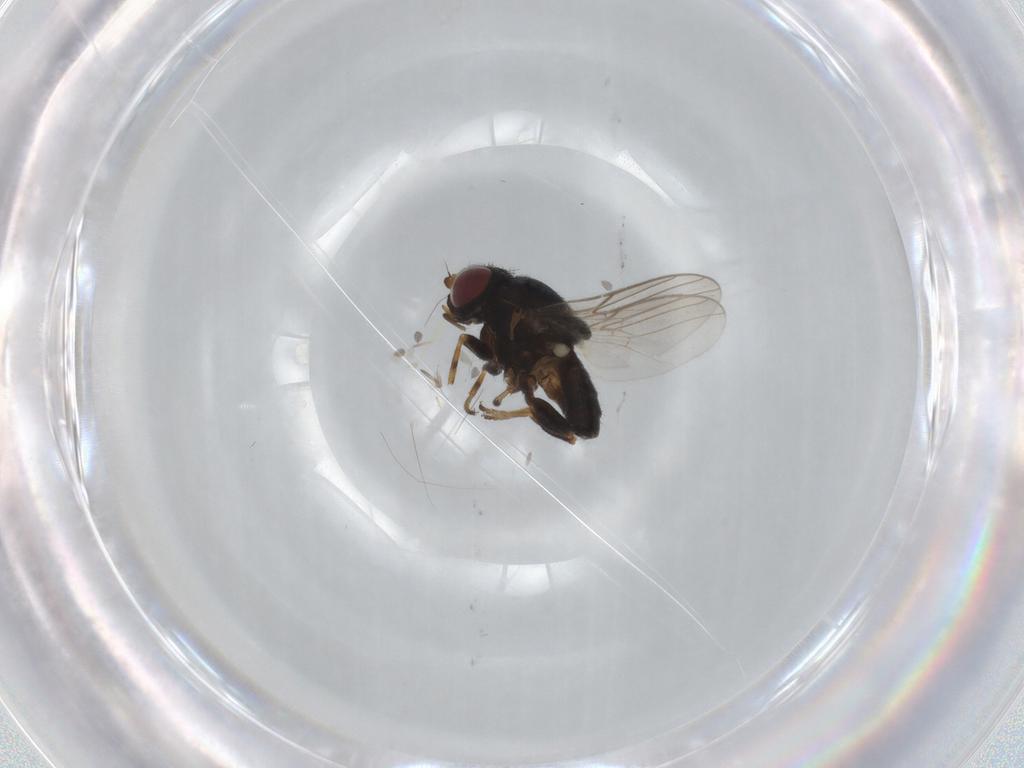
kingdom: Animalia
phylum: Arthropoda
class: Insecta
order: Diptera
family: Chloropidae
